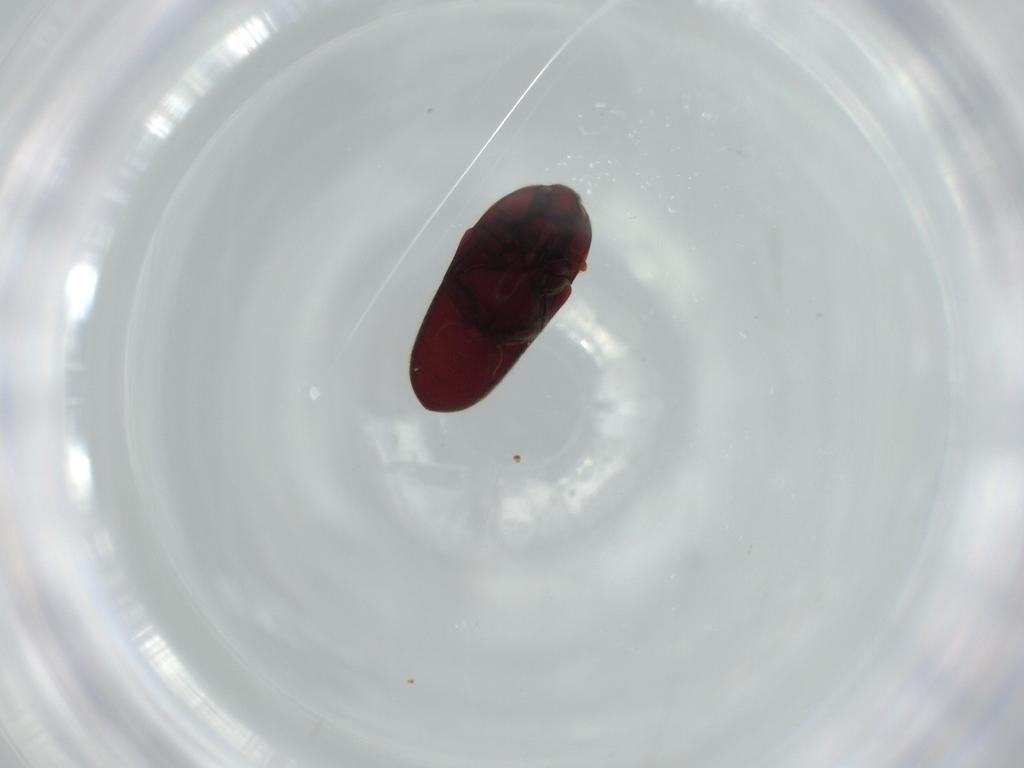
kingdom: Animalia
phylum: Arthropoda
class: Insecta
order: Coleoptera
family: Throscidae
